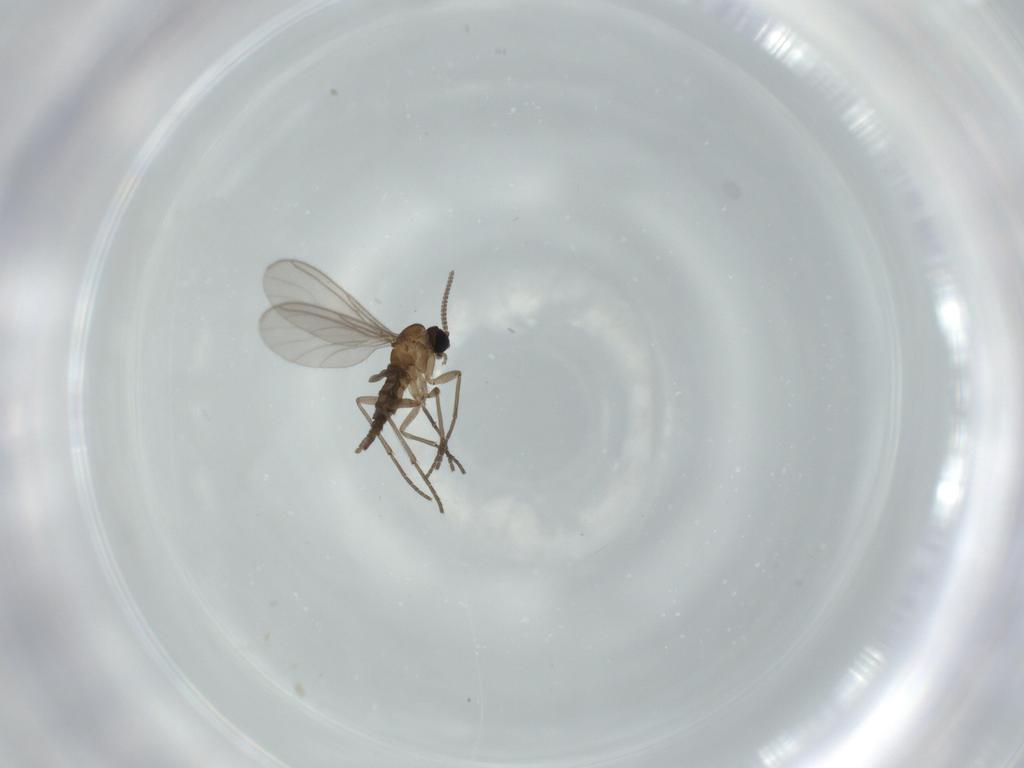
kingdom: Animalia
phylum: Arthropoda
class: Insecta
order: Diptera
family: Sciaridae
